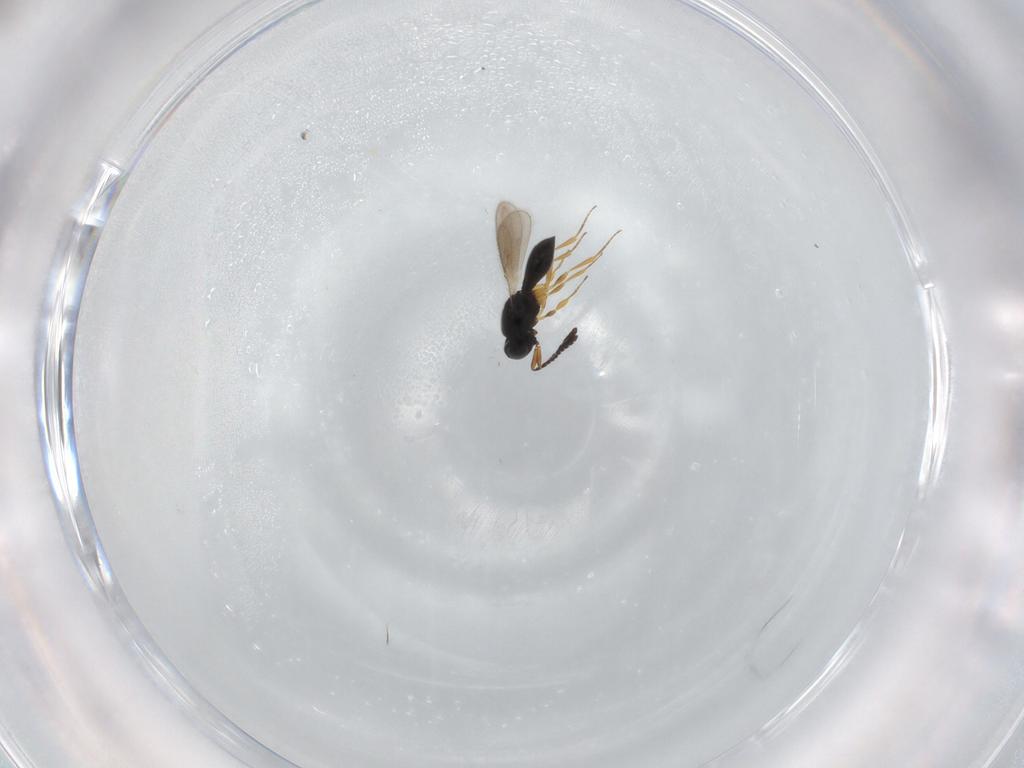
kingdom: Animalia
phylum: Arthropoda
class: Insecta
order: Hymenoptera
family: Scelionidae
